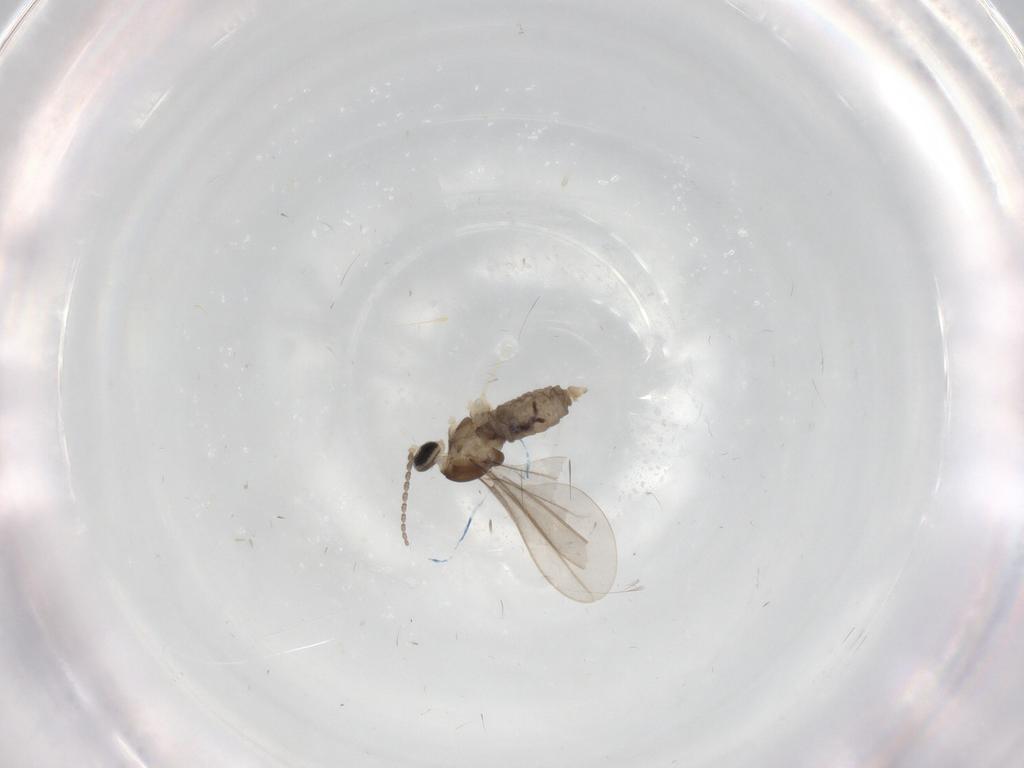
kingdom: Animalia
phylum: Arthropoda
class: Insecta
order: Diptera
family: Cecidomyiidae
